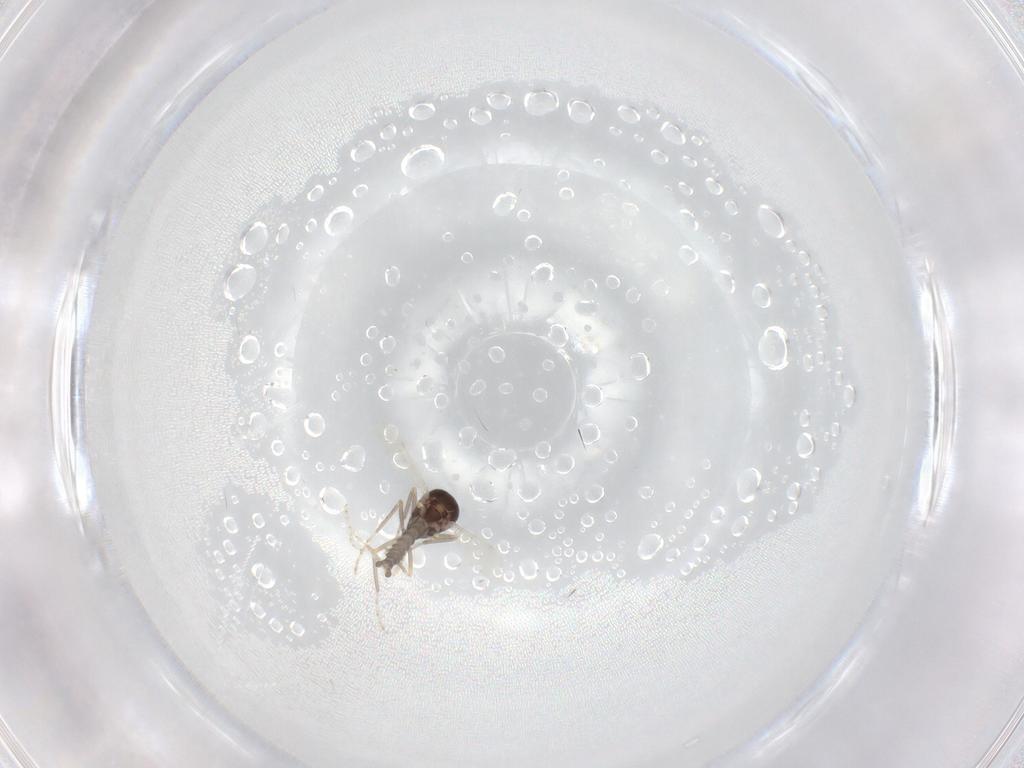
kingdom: Animalia
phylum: Arthropoda
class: Insecta
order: Diptera
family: Ceratopogonidae
